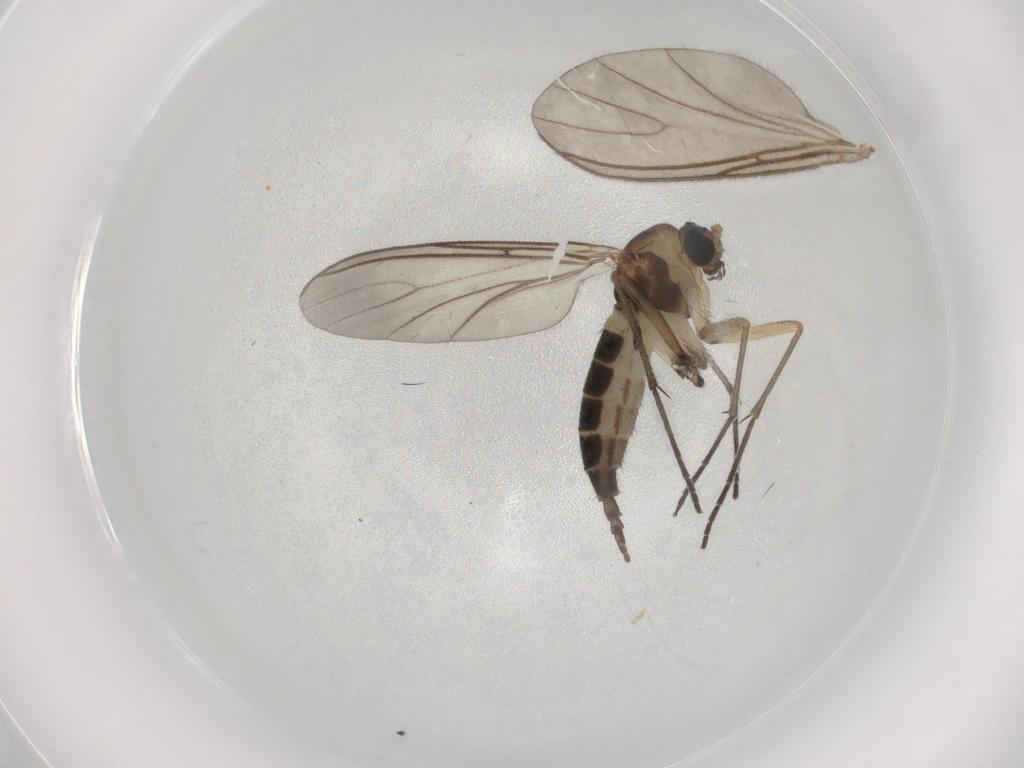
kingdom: Animalia
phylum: Arthropoda
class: Insecta
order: Diptera
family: Sciaridae
